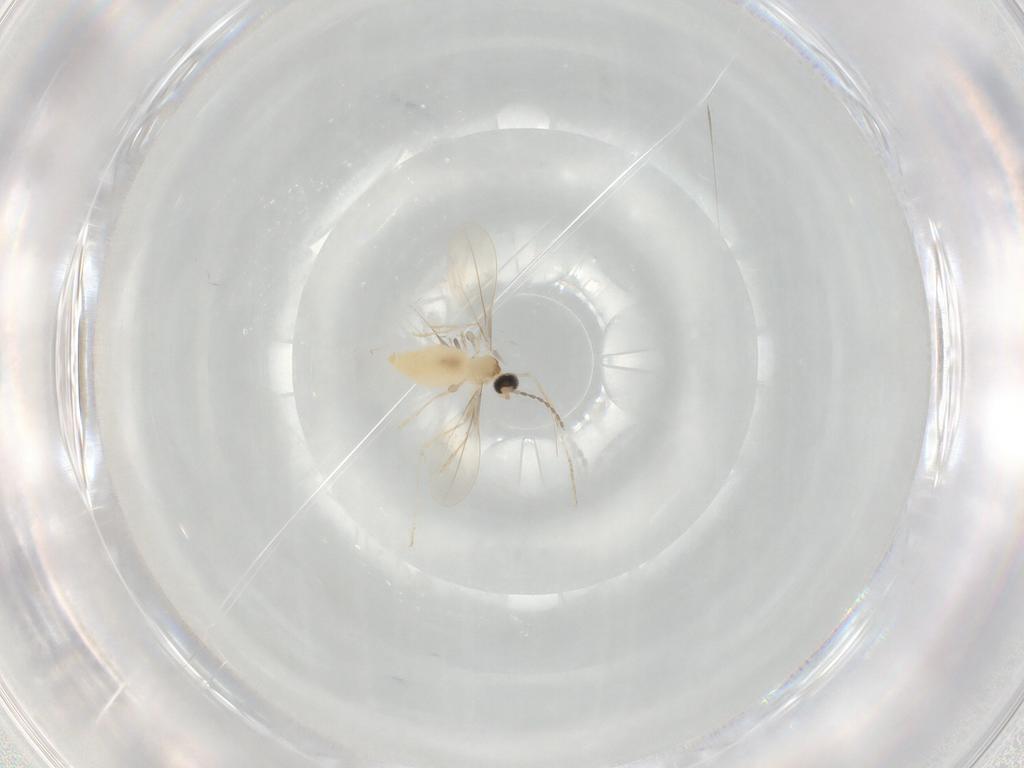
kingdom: Animalia
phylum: Arthropoda
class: Insecta
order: Diptera
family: Cecidomyiidae
